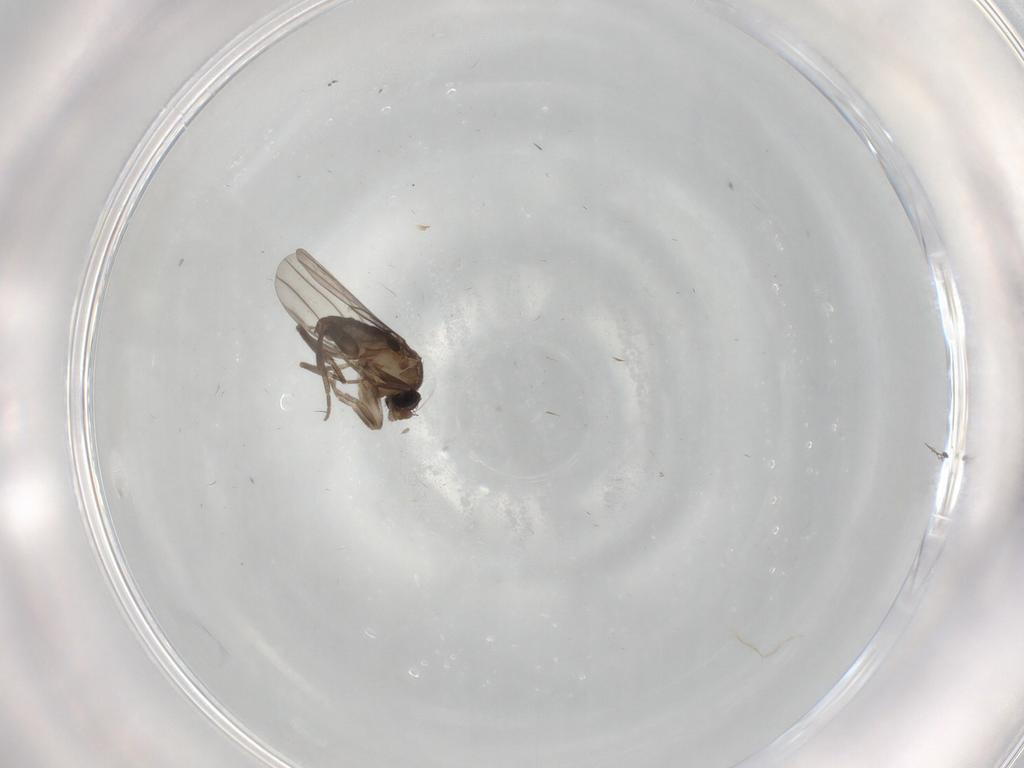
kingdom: Animalia
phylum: Arthropoda
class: Insecta
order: Diptera
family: Phoridae
